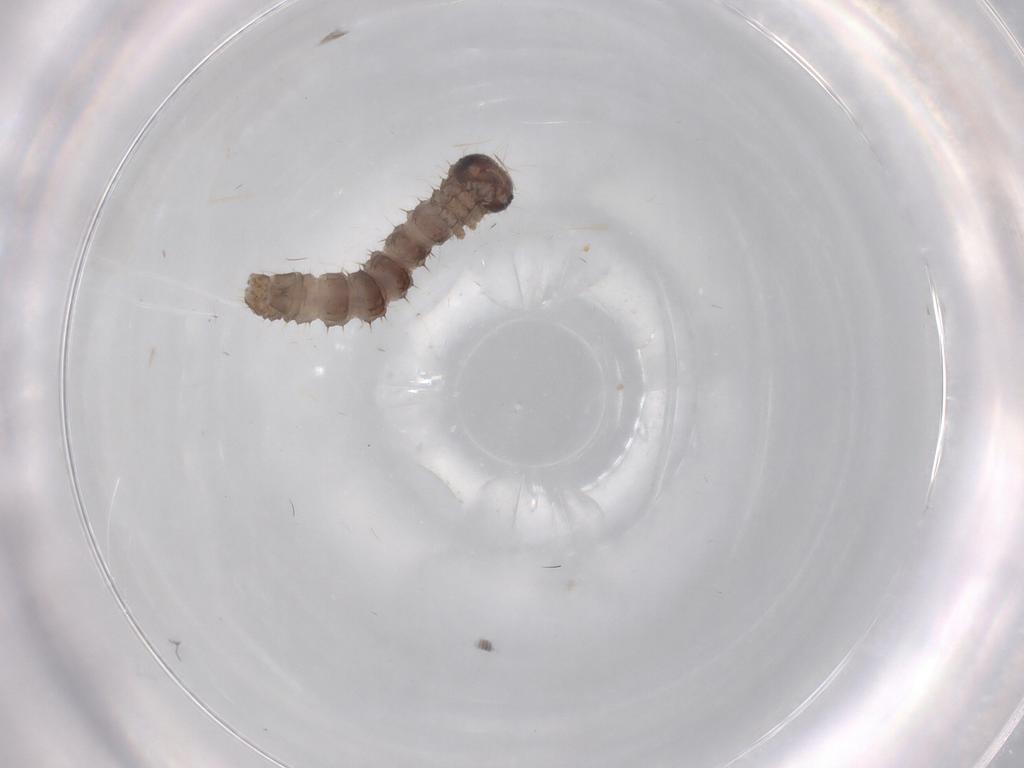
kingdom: Animalia
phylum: Arthropoda
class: Insecta
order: Lepidoptera
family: Geometridae
